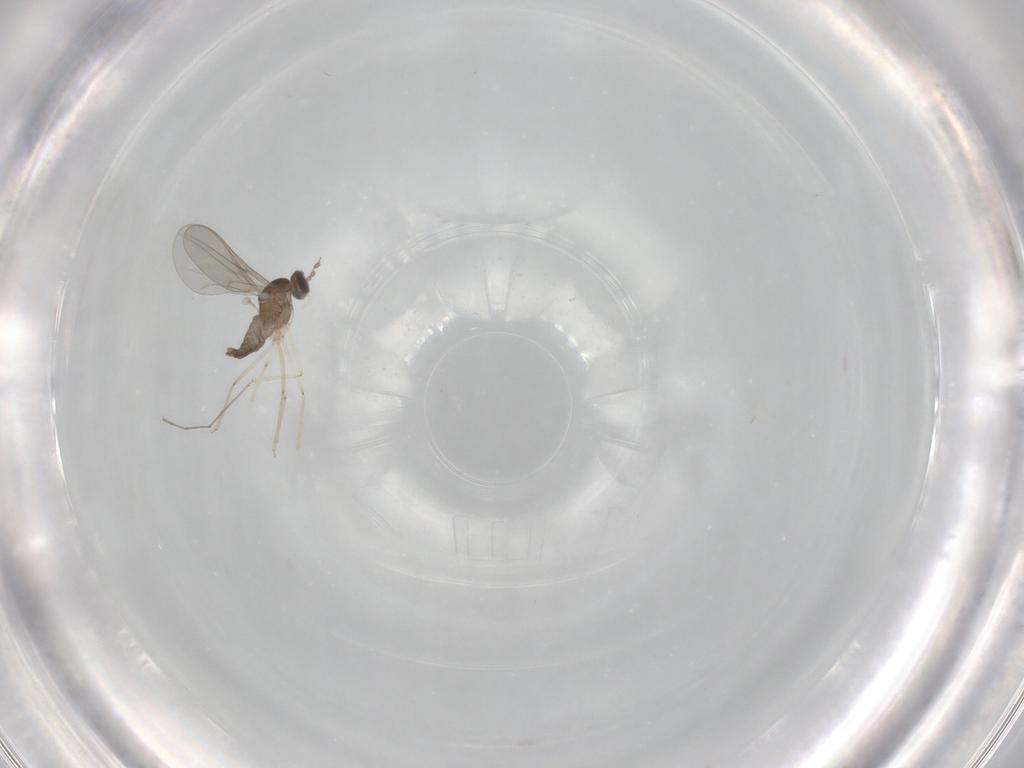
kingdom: Animalia
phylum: Arthropoda
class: Insecta
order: Diptera
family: Cecidomyiidae
